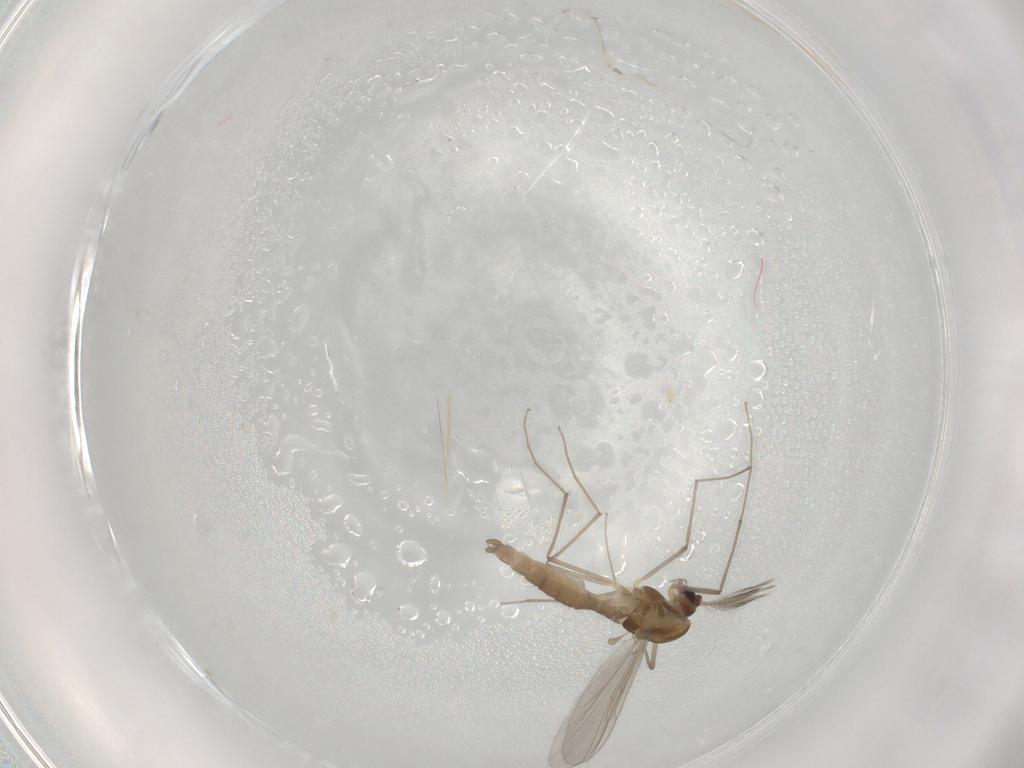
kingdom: Animalia
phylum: Arthropoda
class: Insecta
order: Diptera
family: Chironomidae
